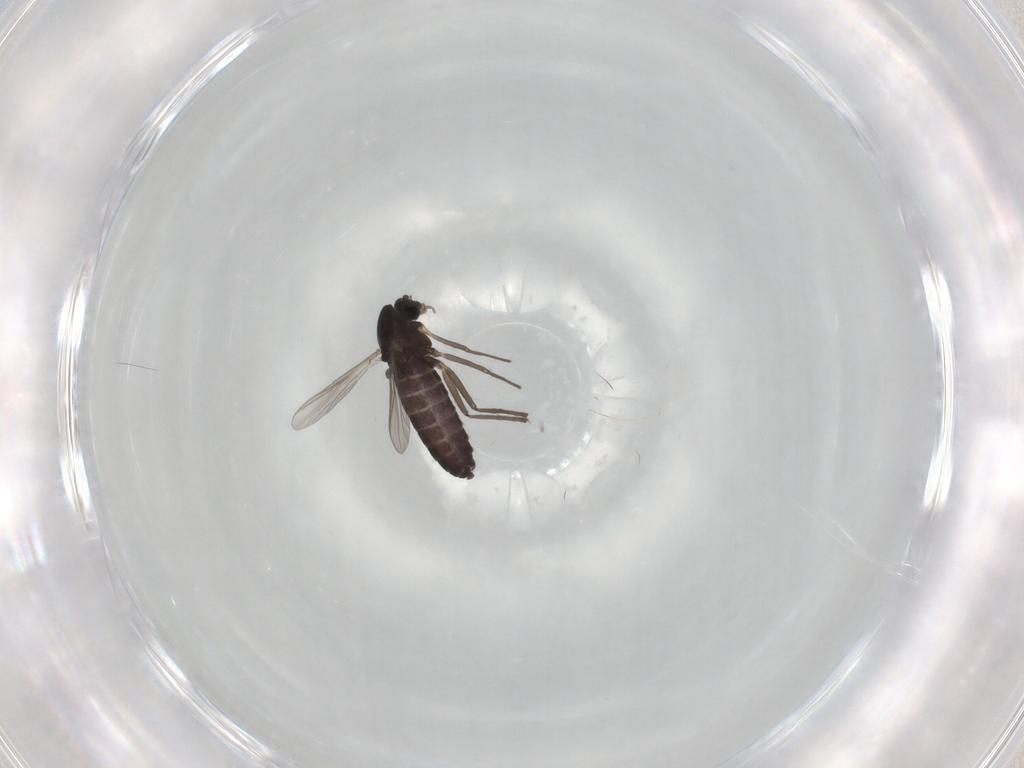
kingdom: Animalia
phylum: Arthropoda
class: Insecta
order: Diptera
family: Chironomidae
